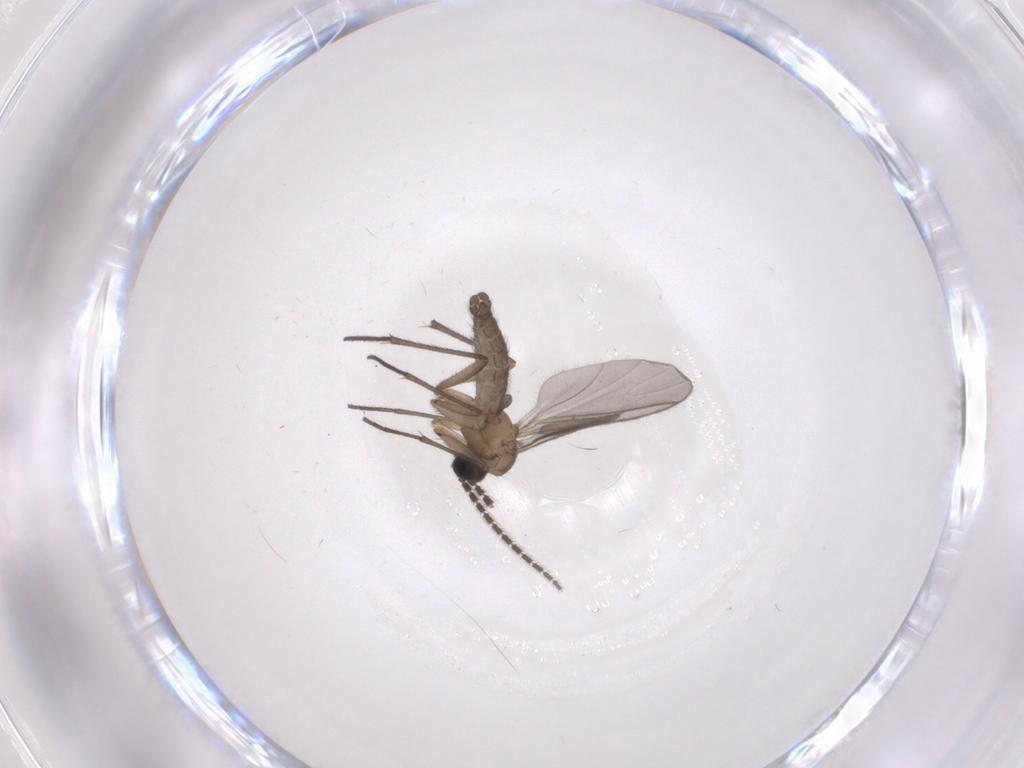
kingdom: Animalia
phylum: Arthropoda
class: Insecta
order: Diptera
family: Sciaridae
